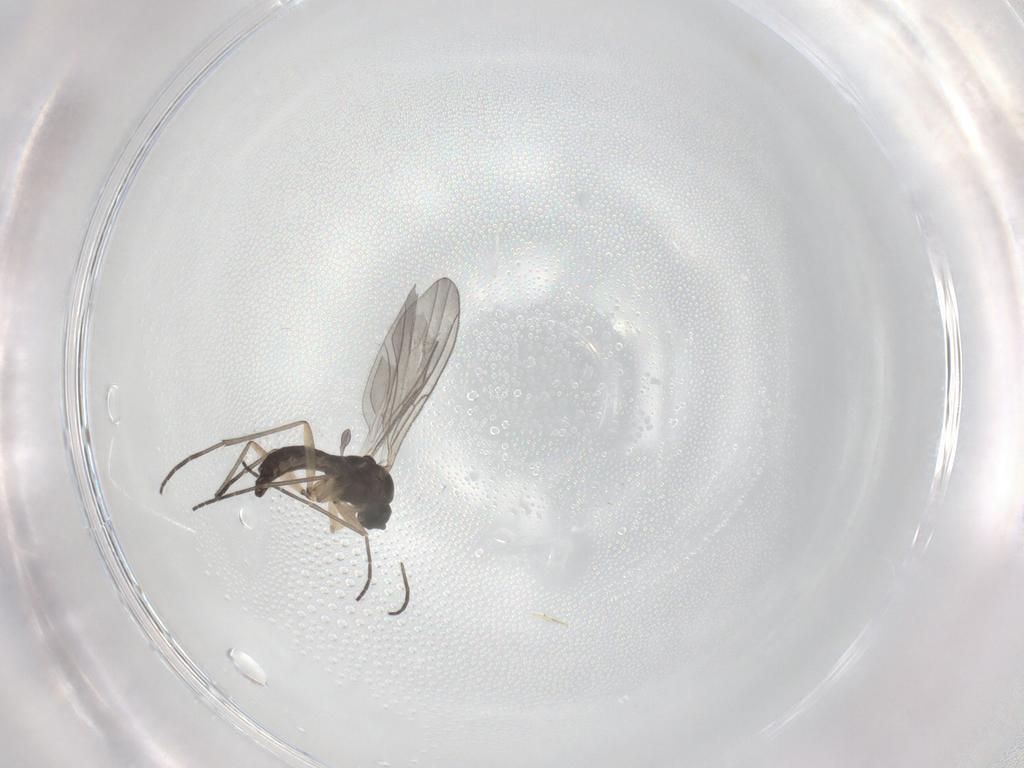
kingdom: Animalia
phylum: Arthropoda
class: Insecta
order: Diptera
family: Sciaridae
